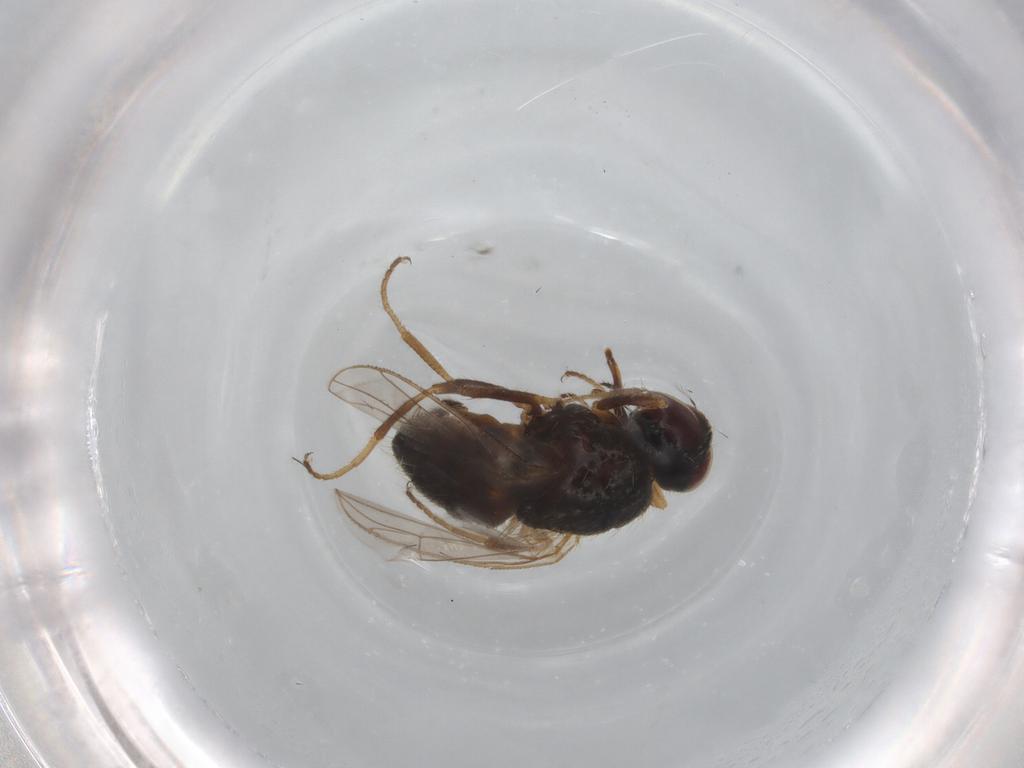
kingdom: Animalia
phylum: Arthropoda
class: Insecta
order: Diptera
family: Muscidae
